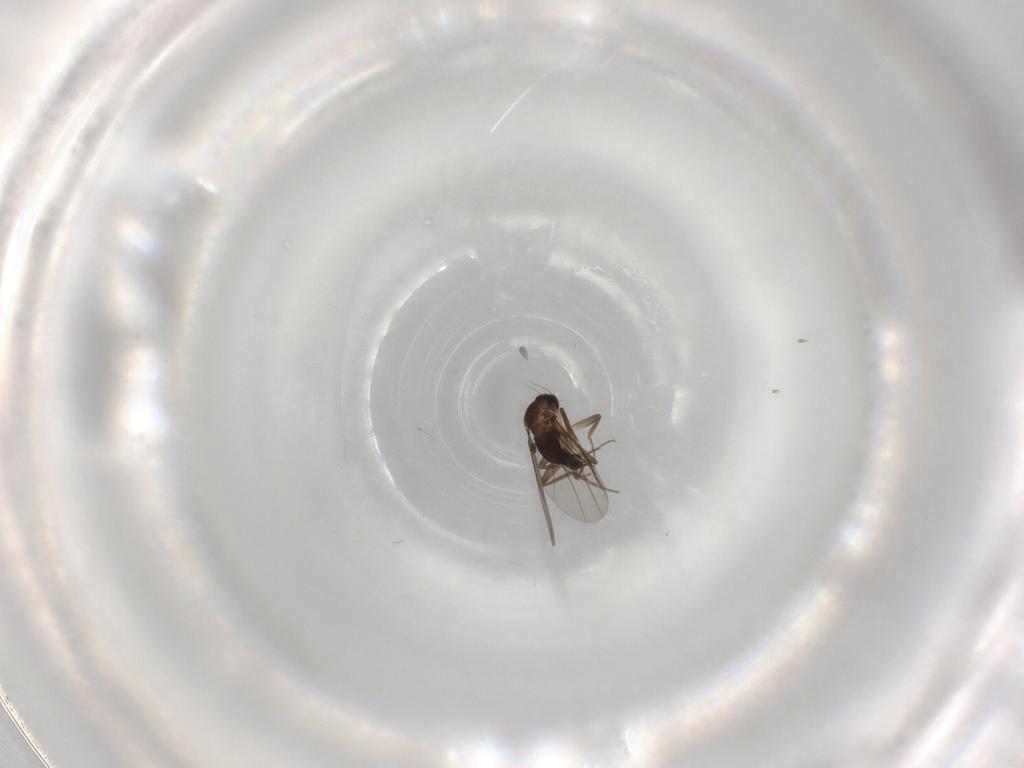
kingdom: Animalia
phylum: Arthropoda
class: Insecta
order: Diptera
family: Phoridae
